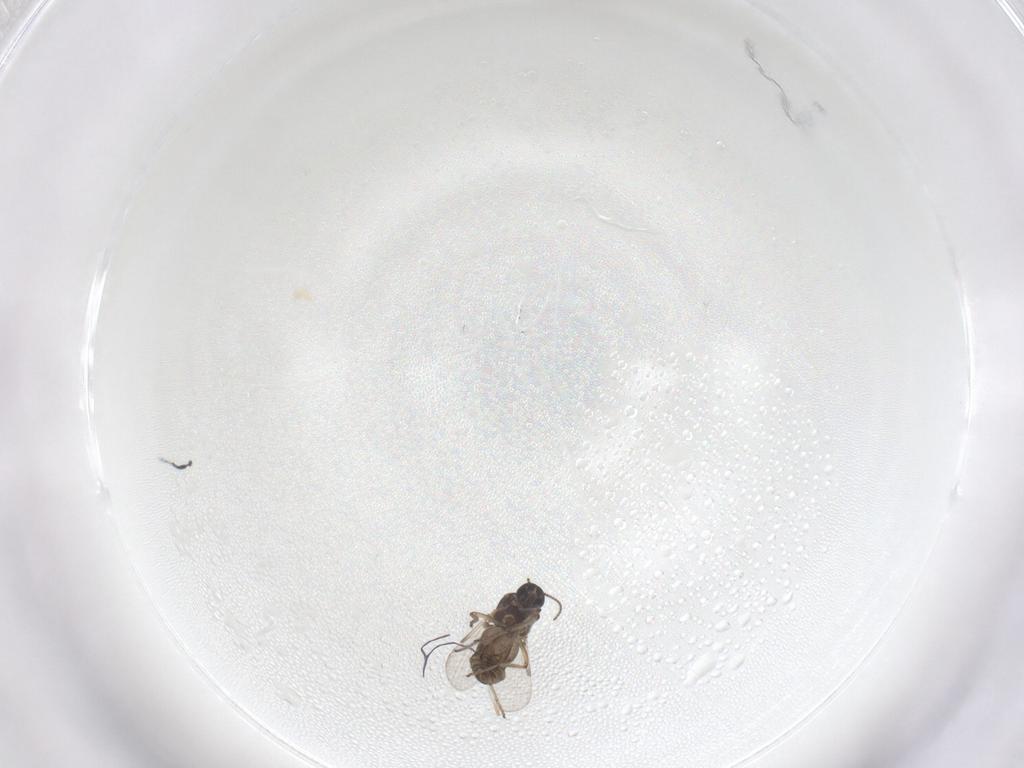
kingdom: Animalia
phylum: Arthropoda
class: Insecta
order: Diptera
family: Ceratopogonidae
